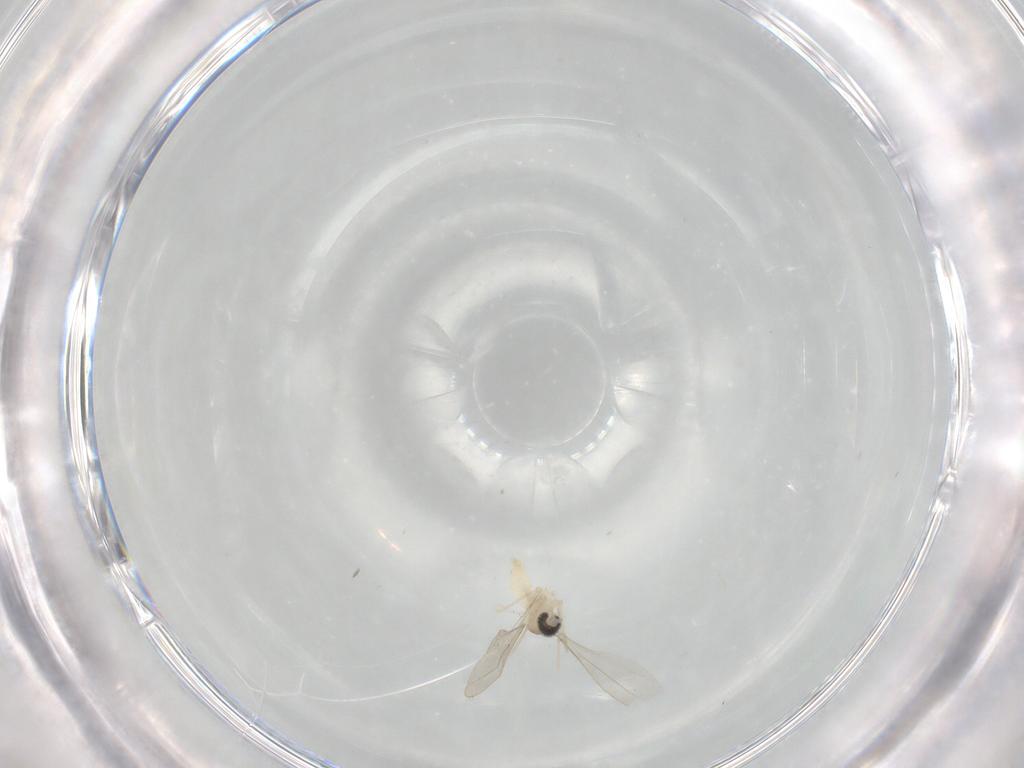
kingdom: Animalia
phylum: Arthropoda
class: Insecta
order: Diptera
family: Cecidomyiidae
